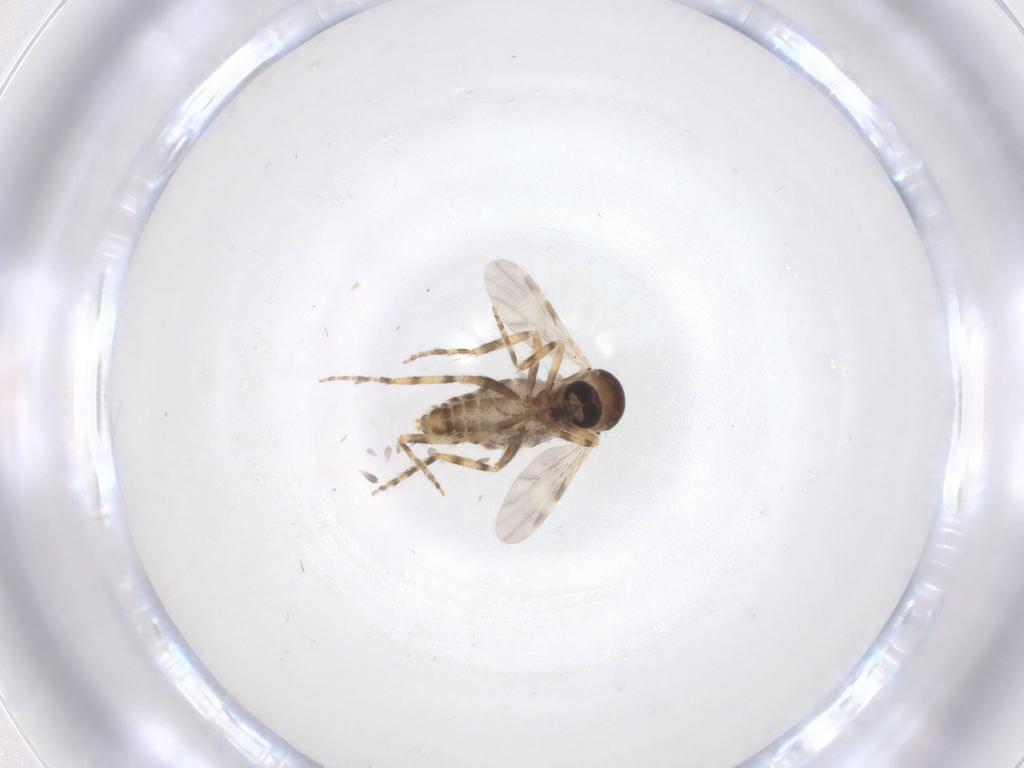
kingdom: Animalia
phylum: Arthropoda
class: Insecta
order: Diptera
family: Ceratopogonidae
